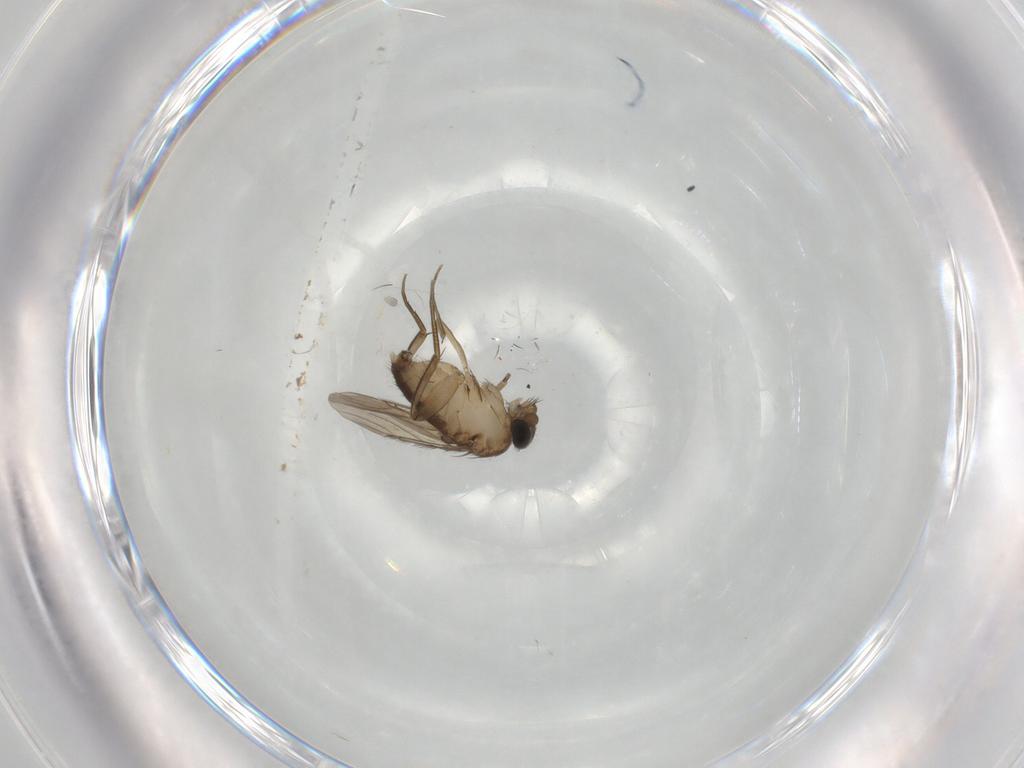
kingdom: Animalia
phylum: Arthropoda
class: Insecta
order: Diptera
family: Phoridae
